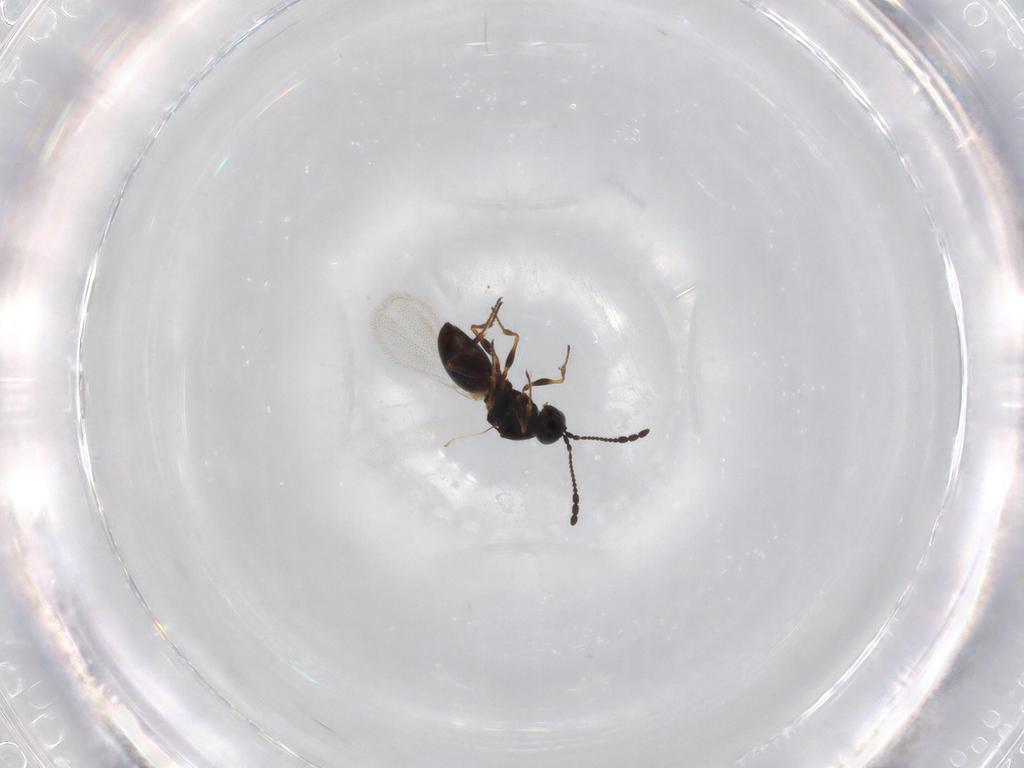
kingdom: Animalia
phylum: Arthropoda
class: Insecta
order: Hymenoptera
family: Figitidae
